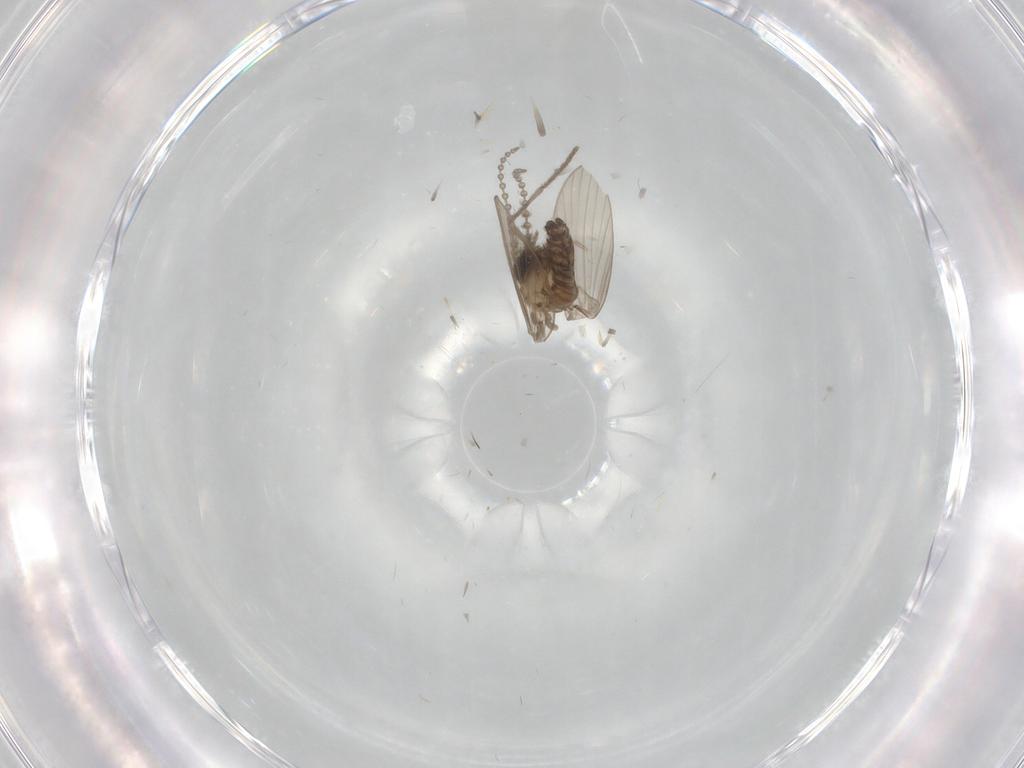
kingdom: Animalia
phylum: Arthropoda
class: Insecta
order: Diptera
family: Psychodidae
